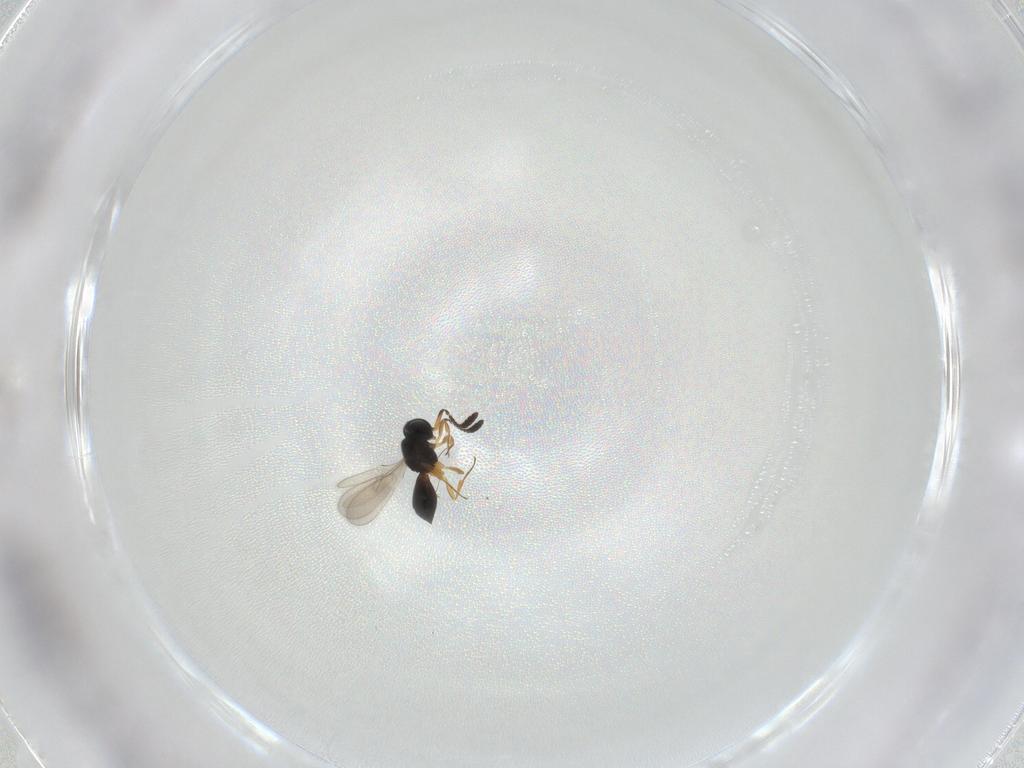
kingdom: Animalia
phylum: Arthropoda
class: Insecta
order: Hymenoptera
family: Scelionidae
